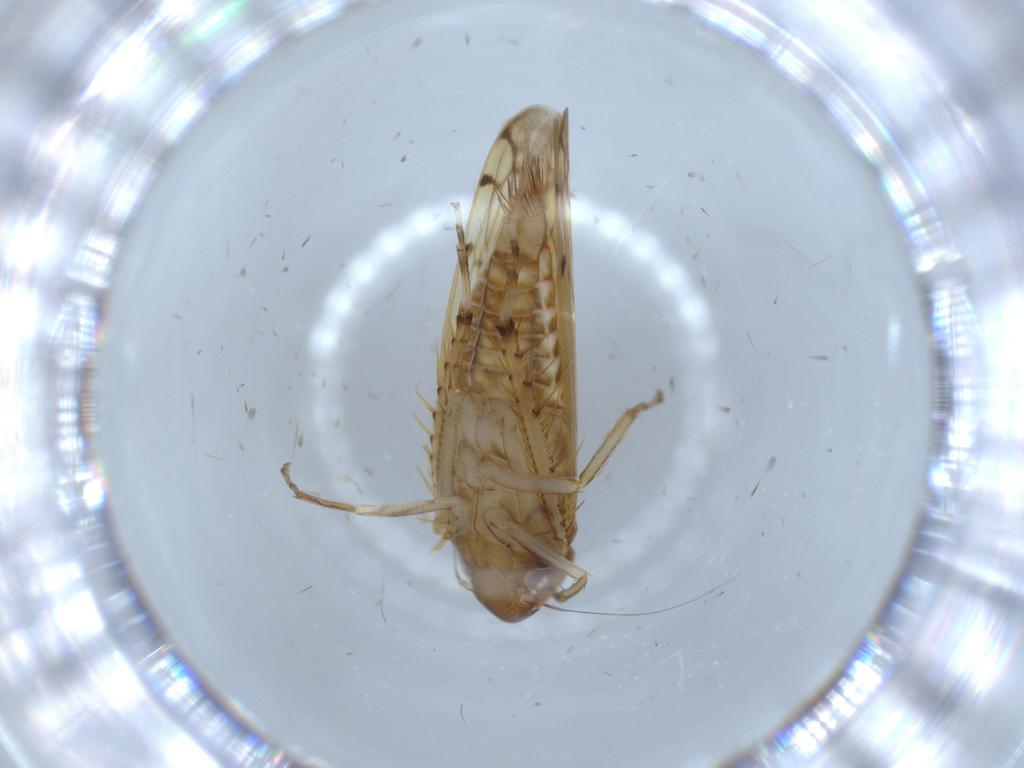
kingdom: Animalia
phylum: Arthropoda
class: Insecta
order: Hemiptera
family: Cicadellidae
